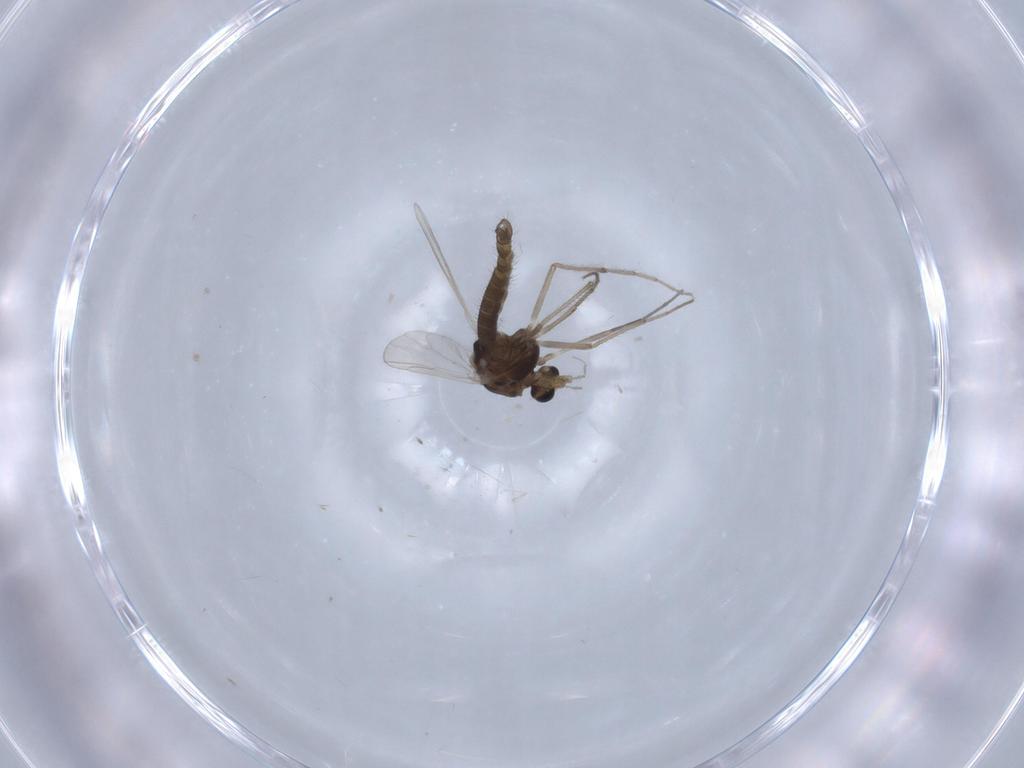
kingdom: Animalia
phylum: Arthropoda
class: Insecta
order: Diptera
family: Chironomidae
